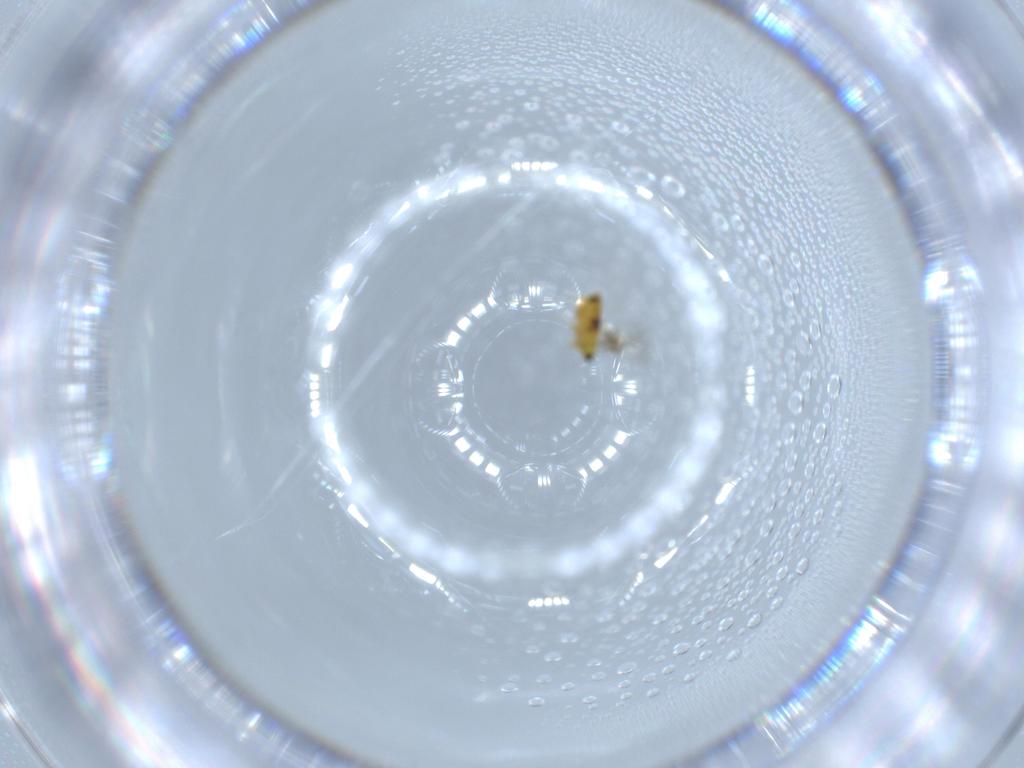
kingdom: Animalia
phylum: Arthropoda
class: Insecta
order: Hymenoptera
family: Signiphoridae
